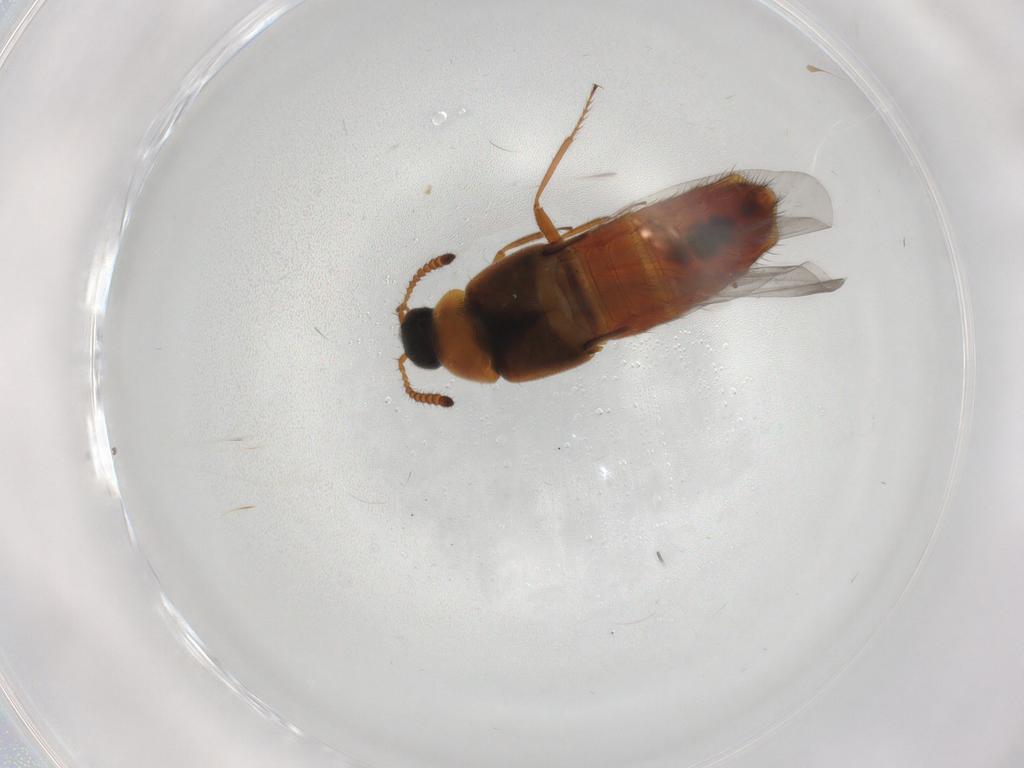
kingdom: Animalia
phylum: Arthropoda
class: Insecta
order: Coleoptera
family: Staphylinidae
